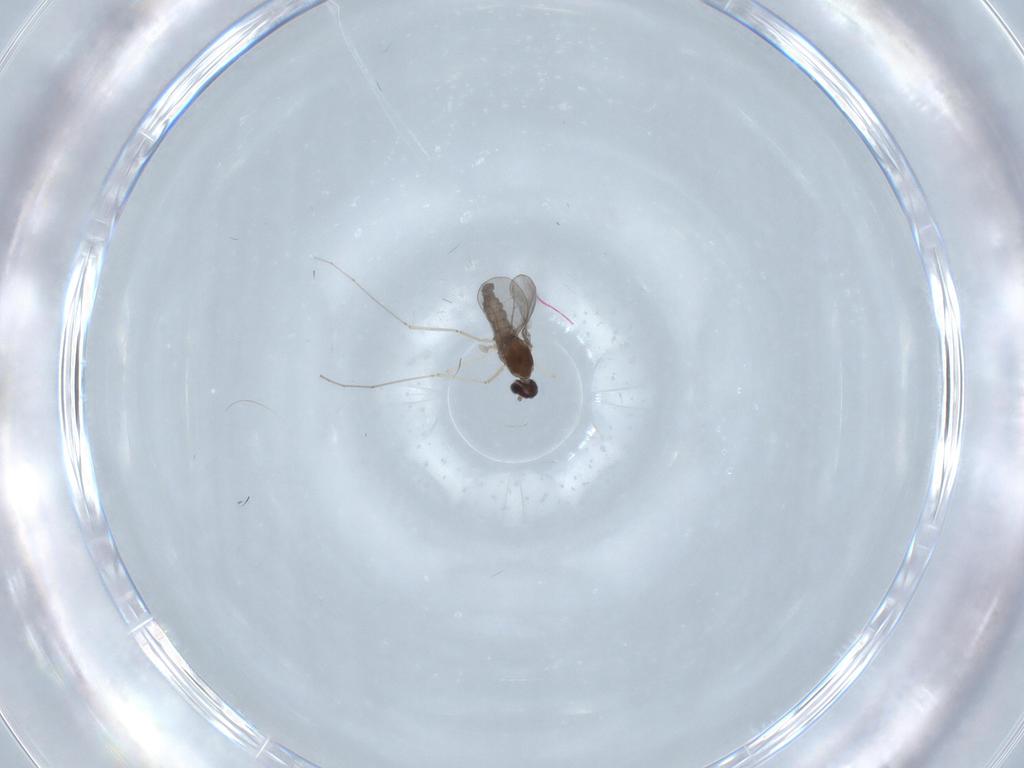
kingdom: Animalia
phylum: Arthropoda
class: Insecta
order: Diptera
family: Cecidomyiidae
